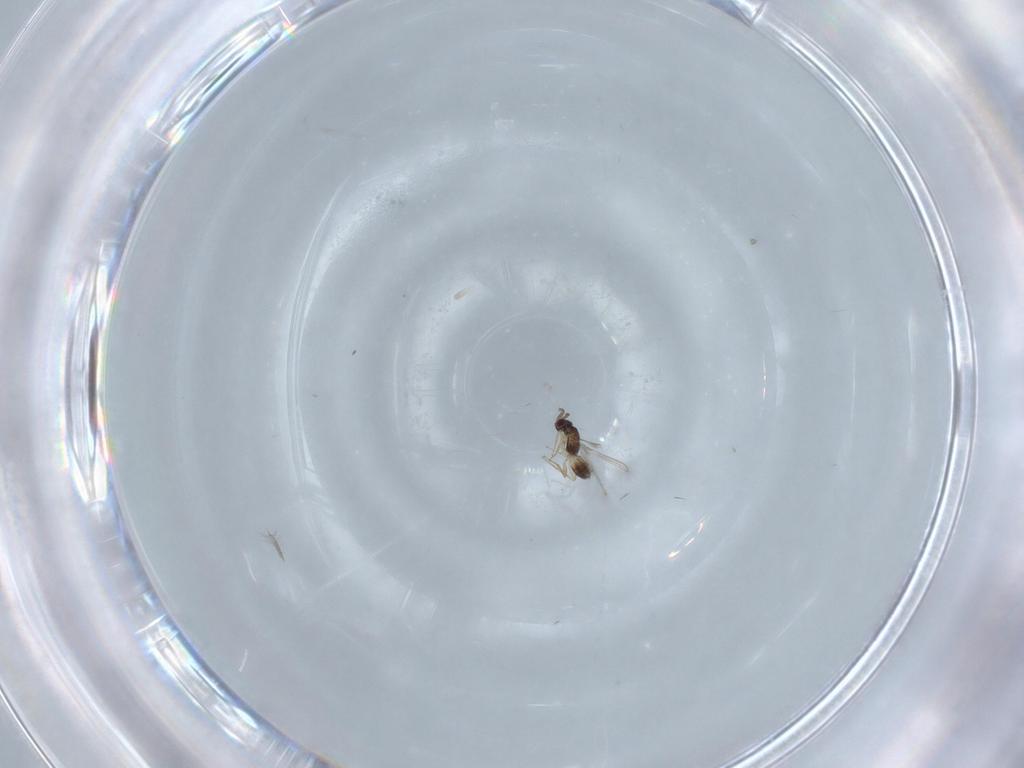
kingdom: Animalia
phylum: Arthropoda
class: Insecta
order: Hymenoptera
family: Mymaridae
